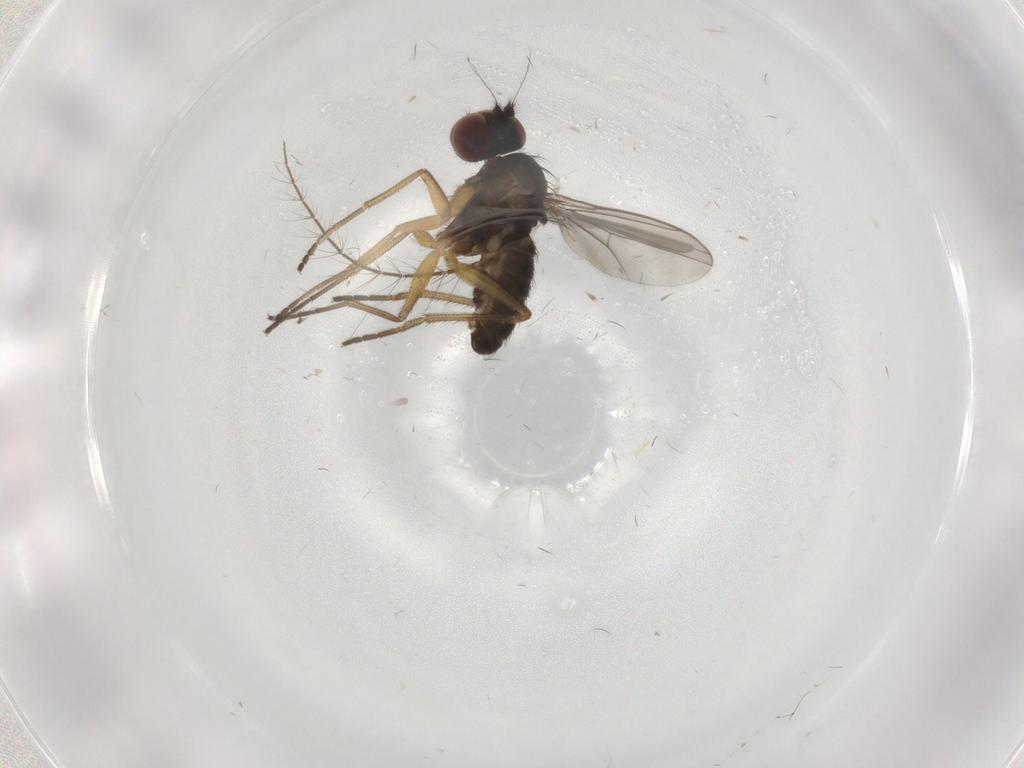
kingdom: Animalia
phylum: Arthropoda
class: Insecta
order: Diptera
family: Dolichopodidae
